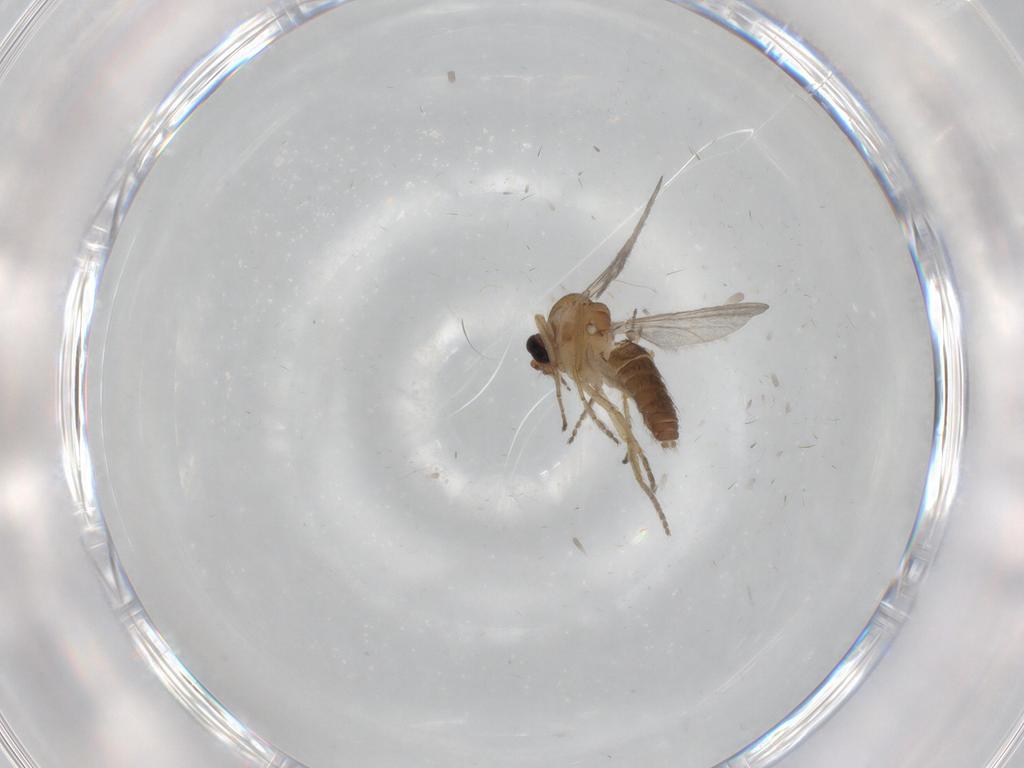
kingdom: Animalia
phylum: Arthropoda
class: Insecta
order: Diptera
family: Ceratopogonidae
